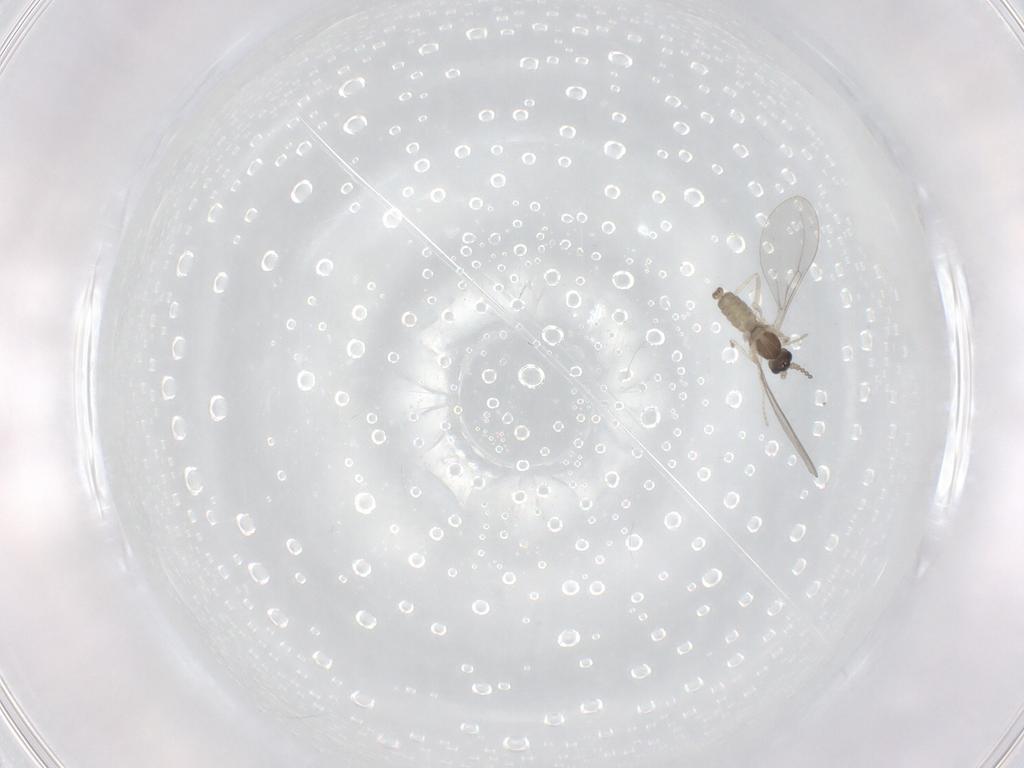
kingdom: Animalia
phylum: Arthropoda
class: Insecta
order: Diptera
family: Cecidomyiidae
